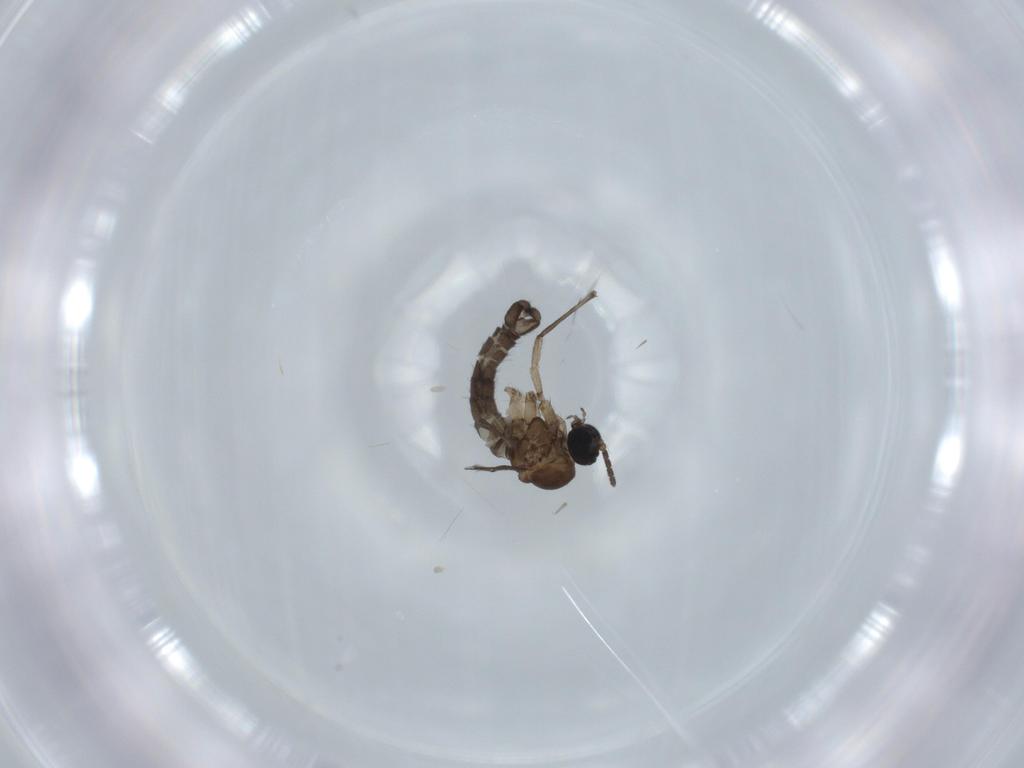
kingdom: Animalia
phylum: Arthropoda
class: Insecta
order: Diptera
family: Sciaridae
